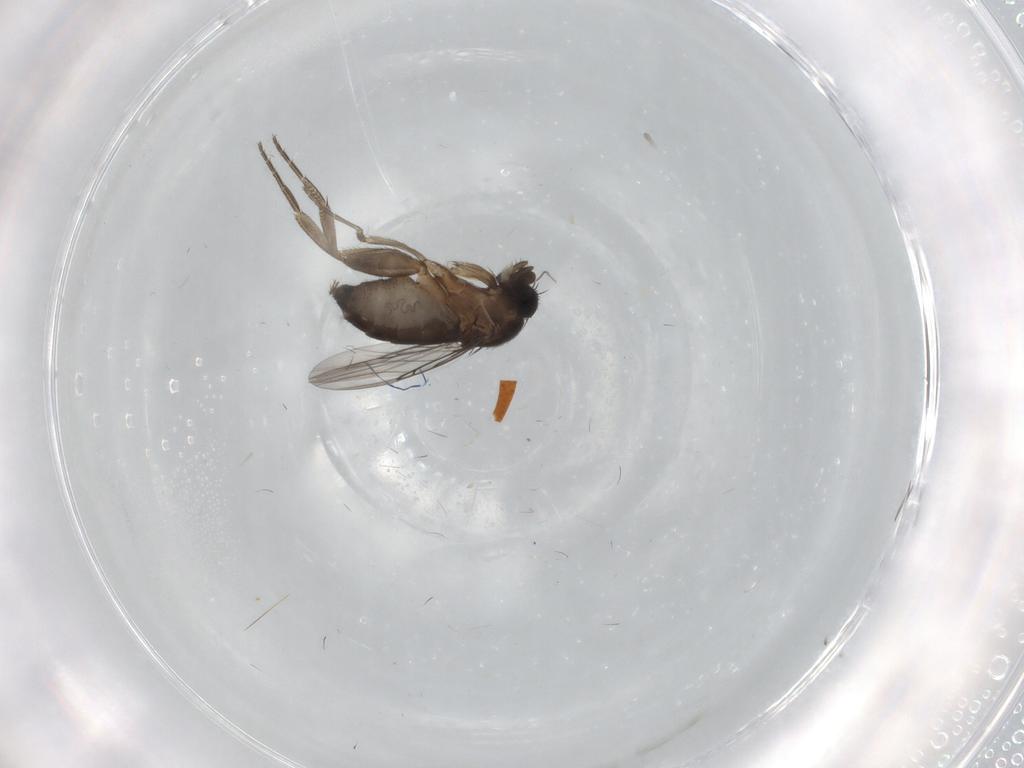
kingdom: Animalia
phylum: Arthropoda
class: Insecta
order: Diptera
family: Phoridae
